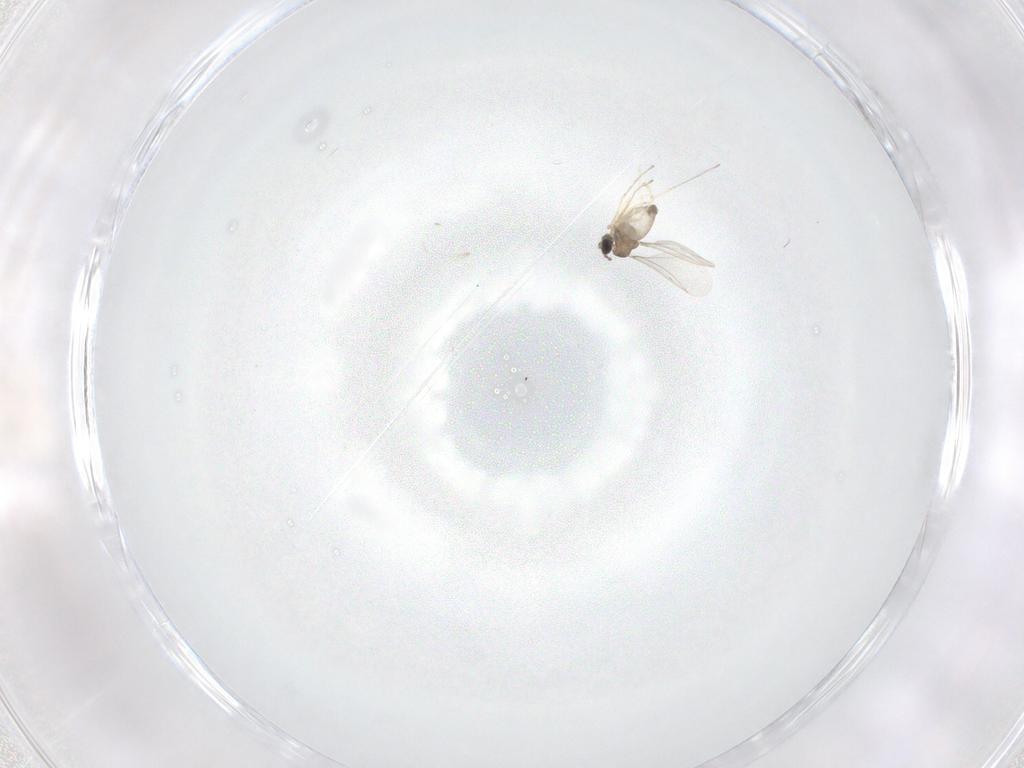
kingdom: Animalia
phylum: Arthropoda
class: Insecta
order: Diptera
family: Cecidomyiidae
